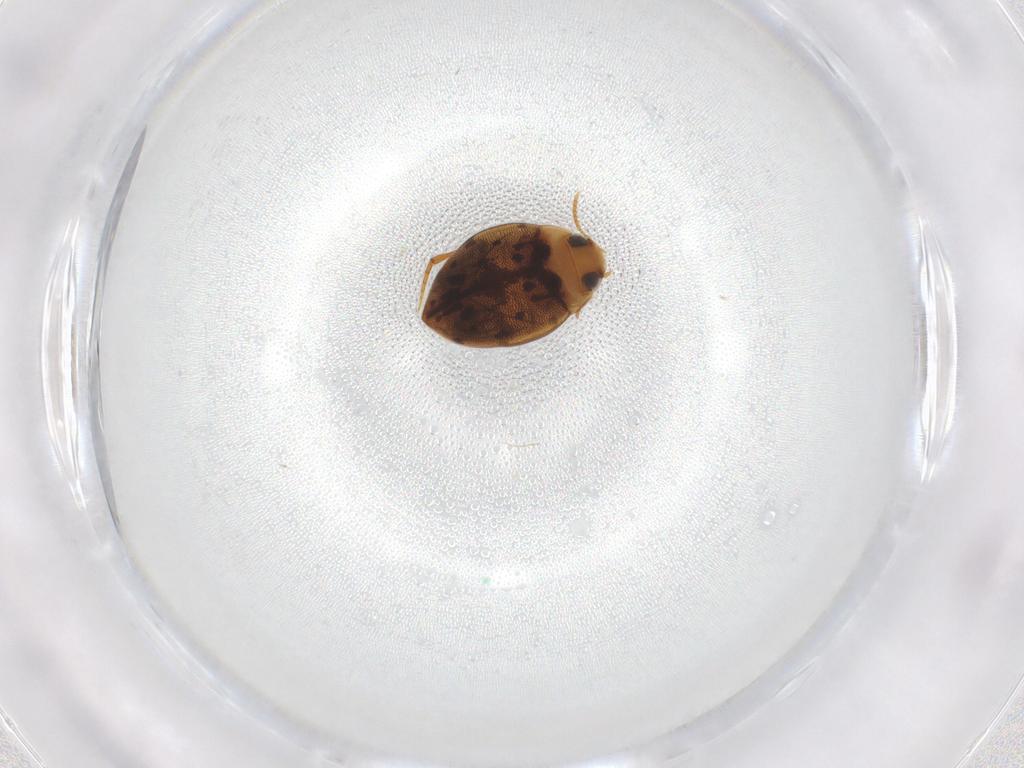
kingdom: Animalia
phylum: Arthropoda
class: Insecta
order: Coleoptera
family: Dytiscidae
